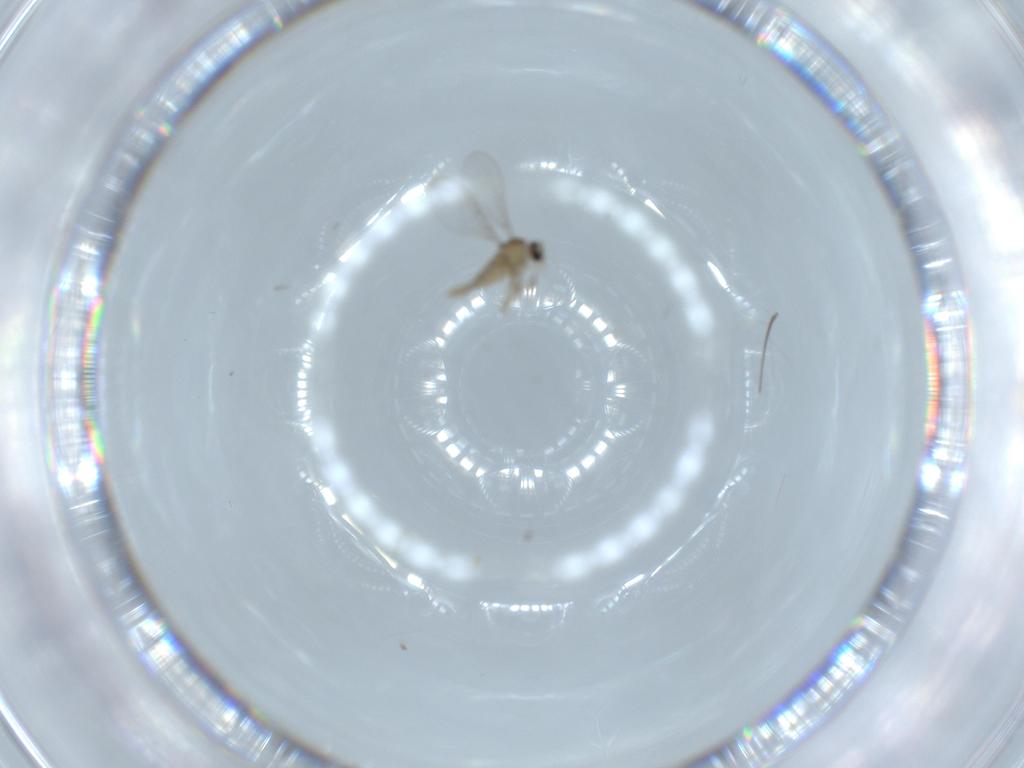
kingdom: Animalia
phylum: Arthropoda
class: Insecta
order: Diptera
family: Cecidomyiidae
